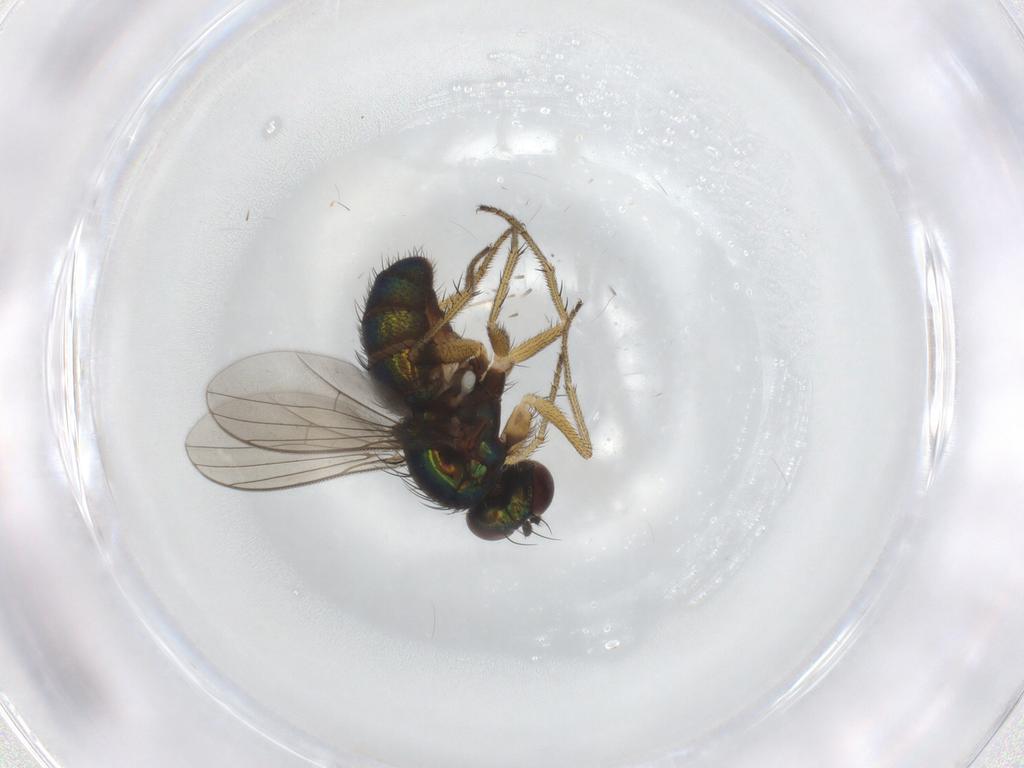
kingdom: Animalia
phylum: Arthropoda
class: Insecta
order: Diptera
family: Dolichopodidae
